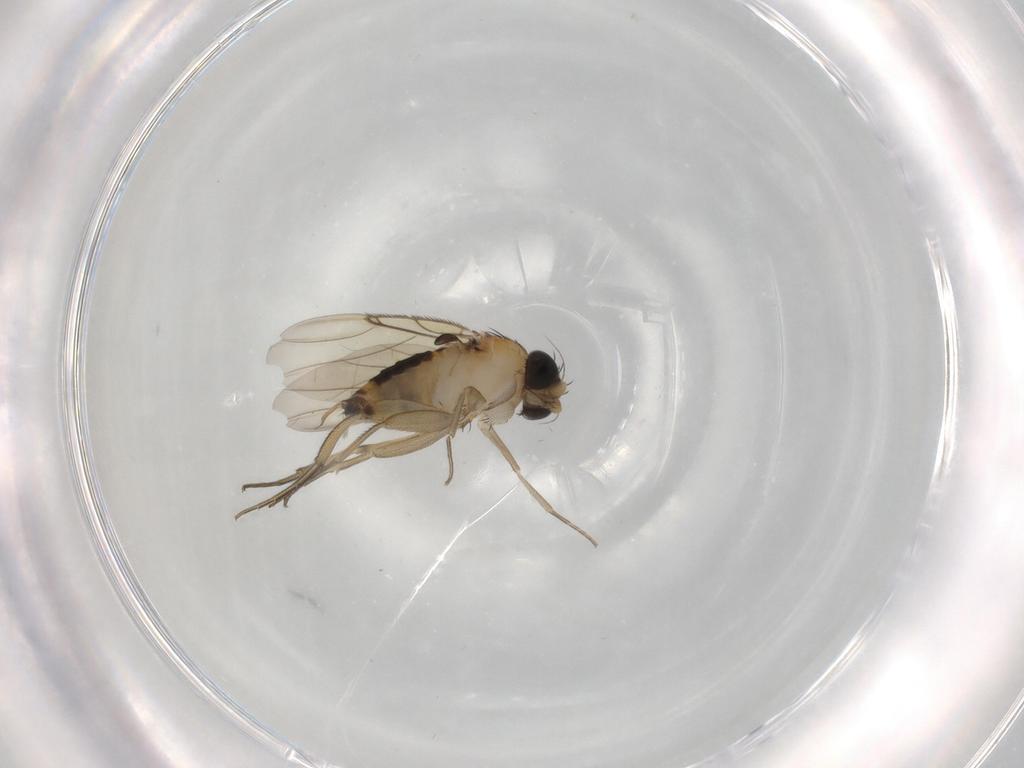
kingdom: Animalia
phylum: Arthropoda
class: Insecta
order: Diptera
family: Phoridae
